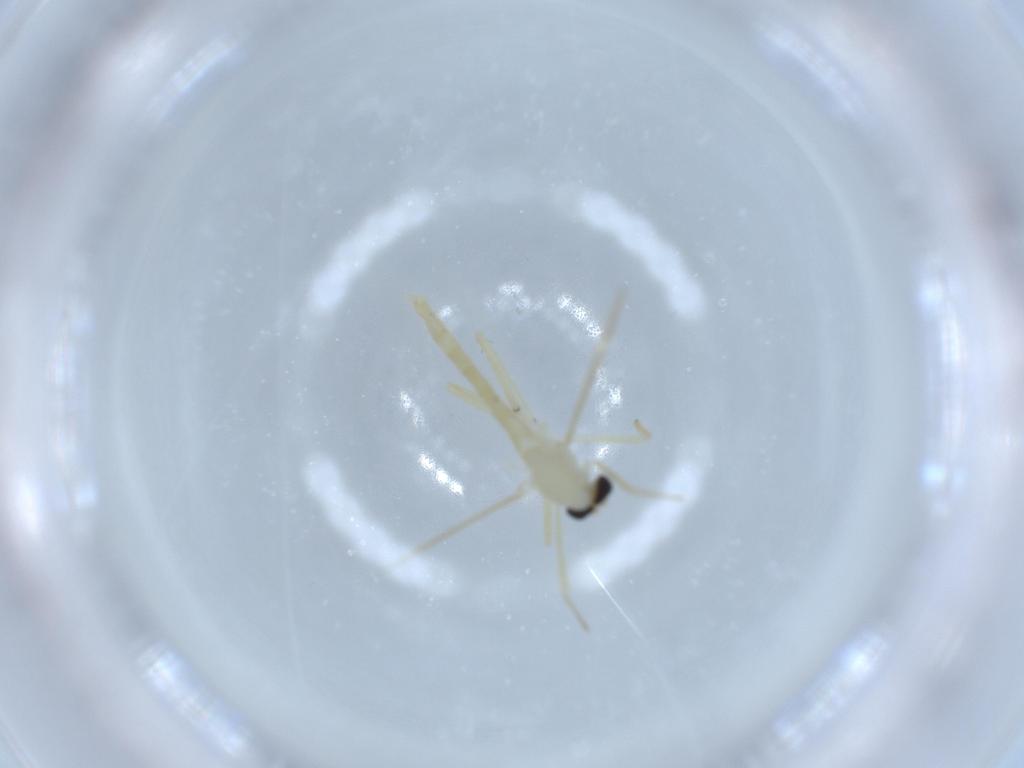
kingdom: Animalia
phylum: Arthropoda
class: Insecta
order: Diptera
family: Chironomidae
